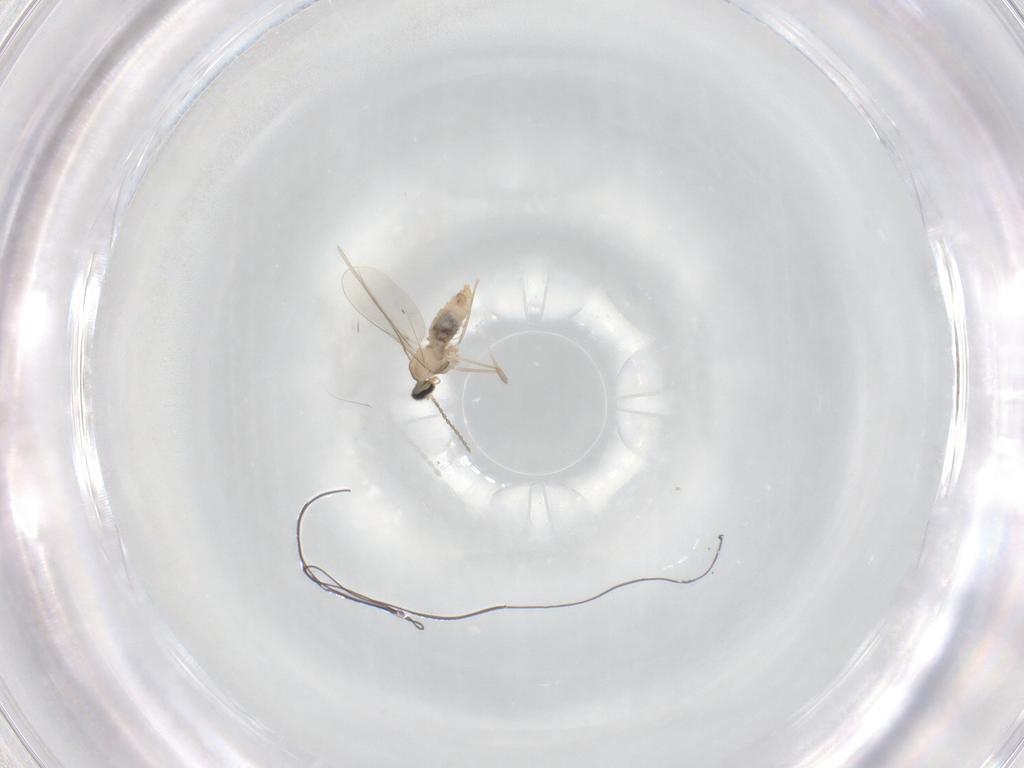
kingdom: Animalia
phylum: Arthropoda
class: Insecta
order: Diptera
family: Cecidomyiidae
